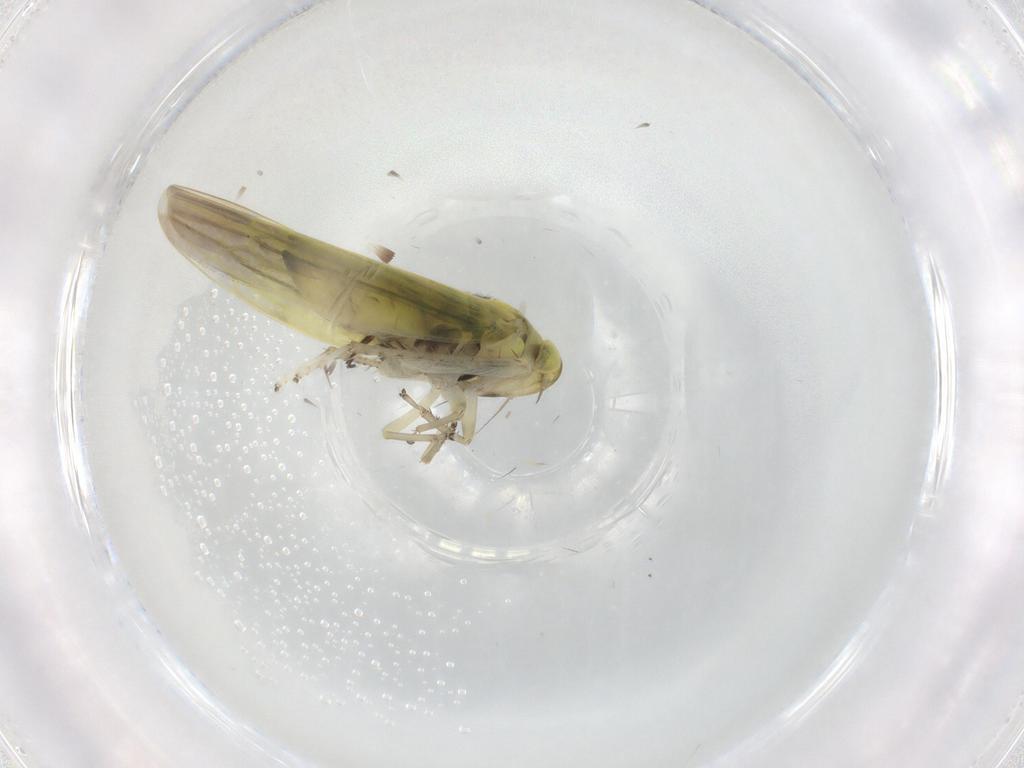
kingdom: Animalia
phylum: Arthropoda
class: Insecta
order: Hemiptera
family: Cicadellidae
